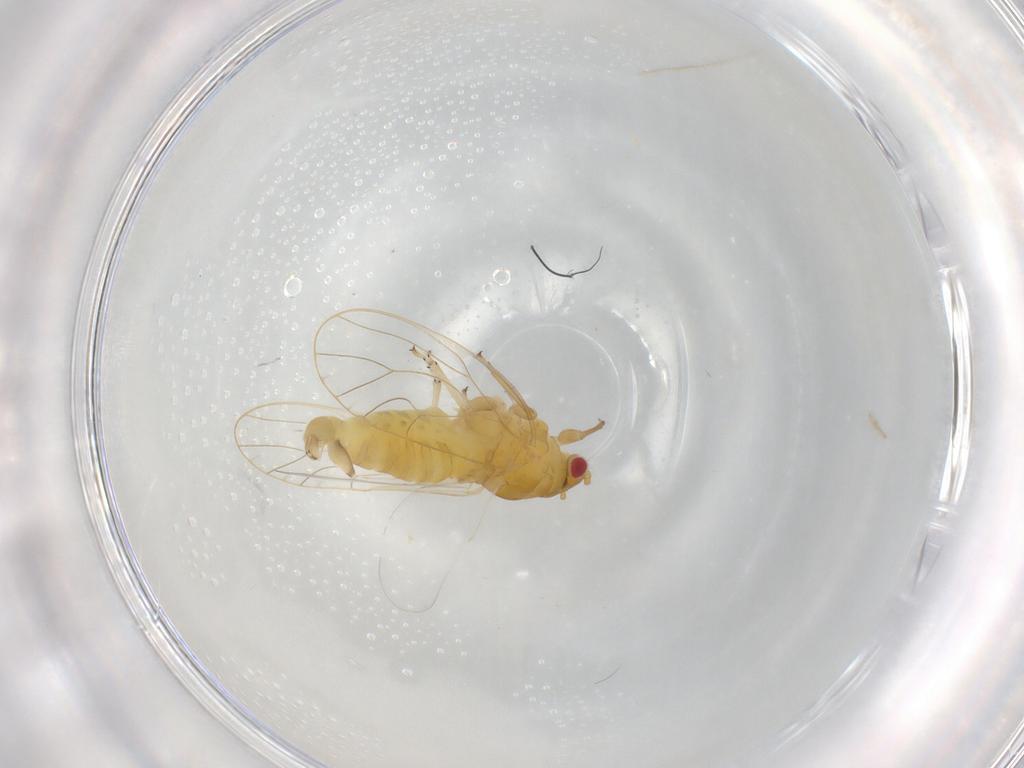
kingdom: Animalia
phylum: Arthropoda
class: Insecta
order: Hemiptera
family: Psyllidae
